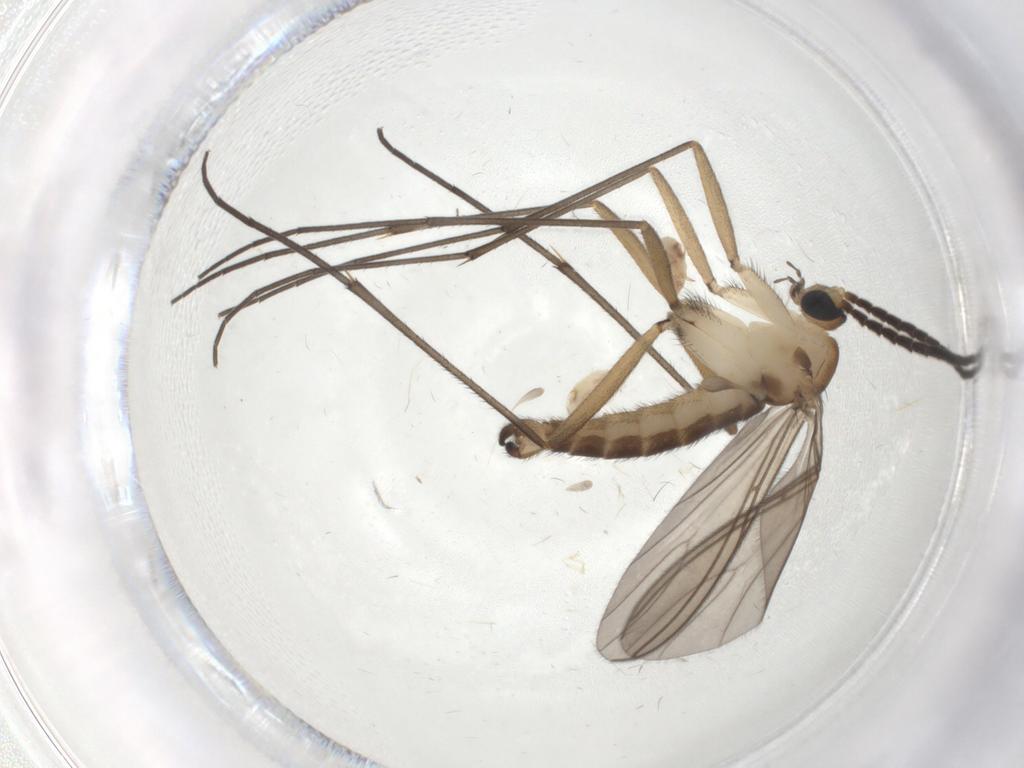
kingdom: Animalia
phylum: Arthropoda
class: Insecta
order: Diptera
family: Sciaridae
